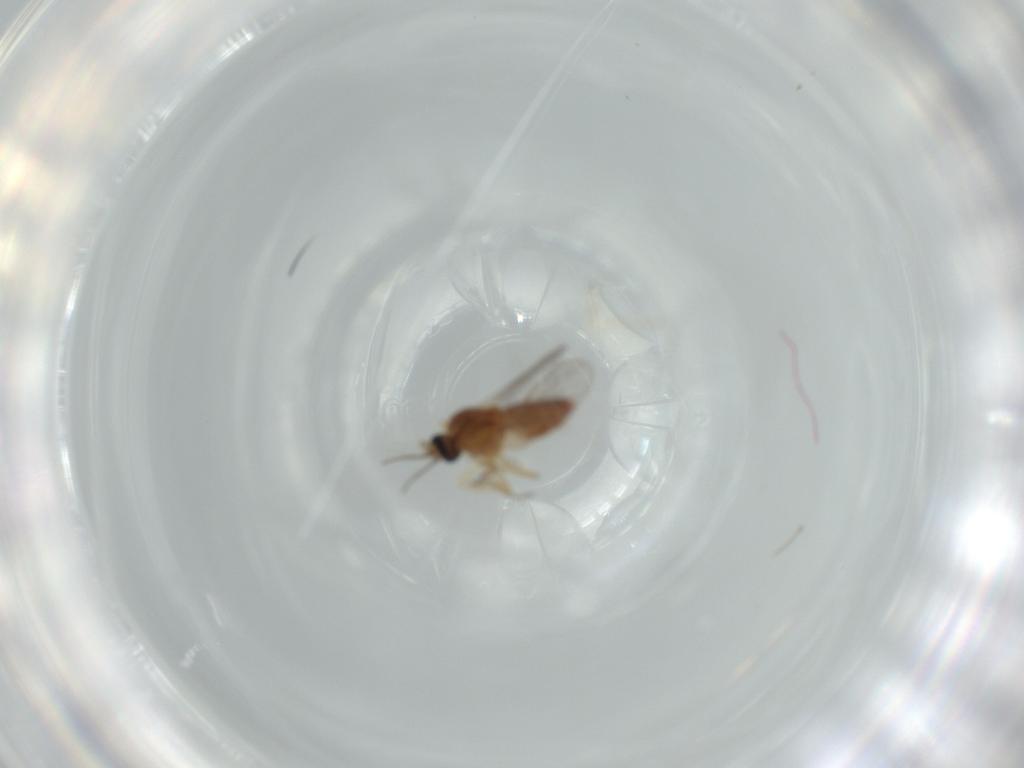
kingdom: Animalia
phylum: Arthropoda
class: Insecta
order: Diptera
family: Ceratopogonidae
